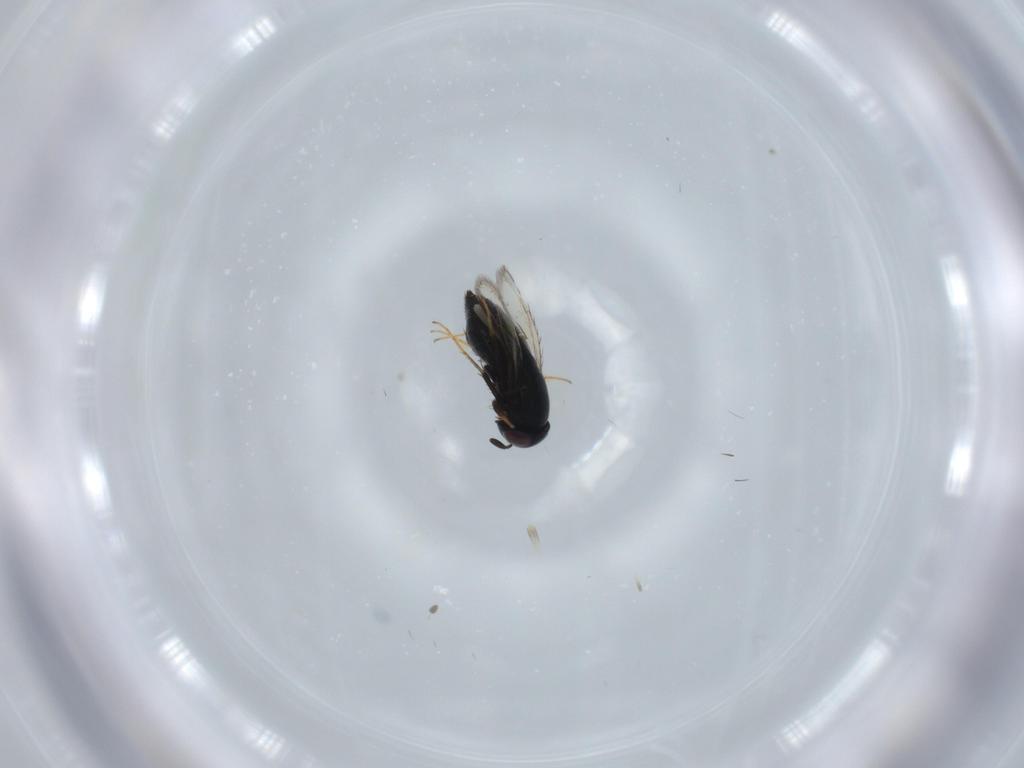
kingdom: Animalia
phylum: Arthropoda
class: Insecta
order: Hymenoptera
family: Signiphoridae
